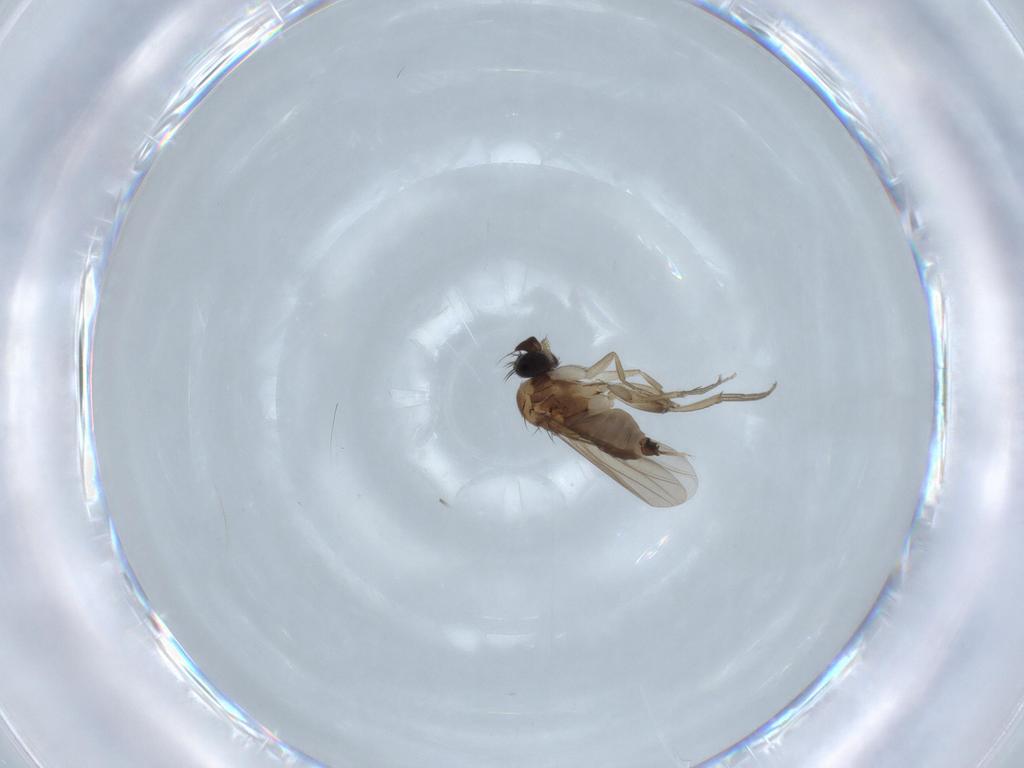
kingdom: Animalia
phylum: Arthropoda
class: Insecta
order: Diptera
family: Phoridae
